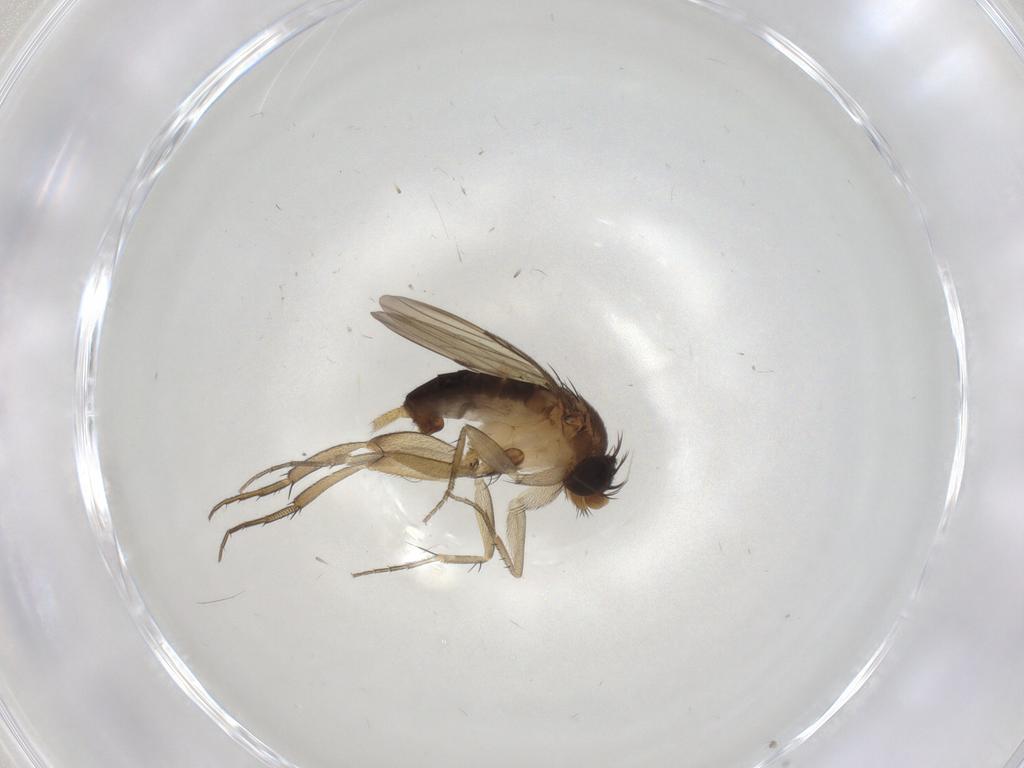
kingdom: Animalia
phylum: Arthropoda
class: Insecta
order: Diptera
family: Phoridae
